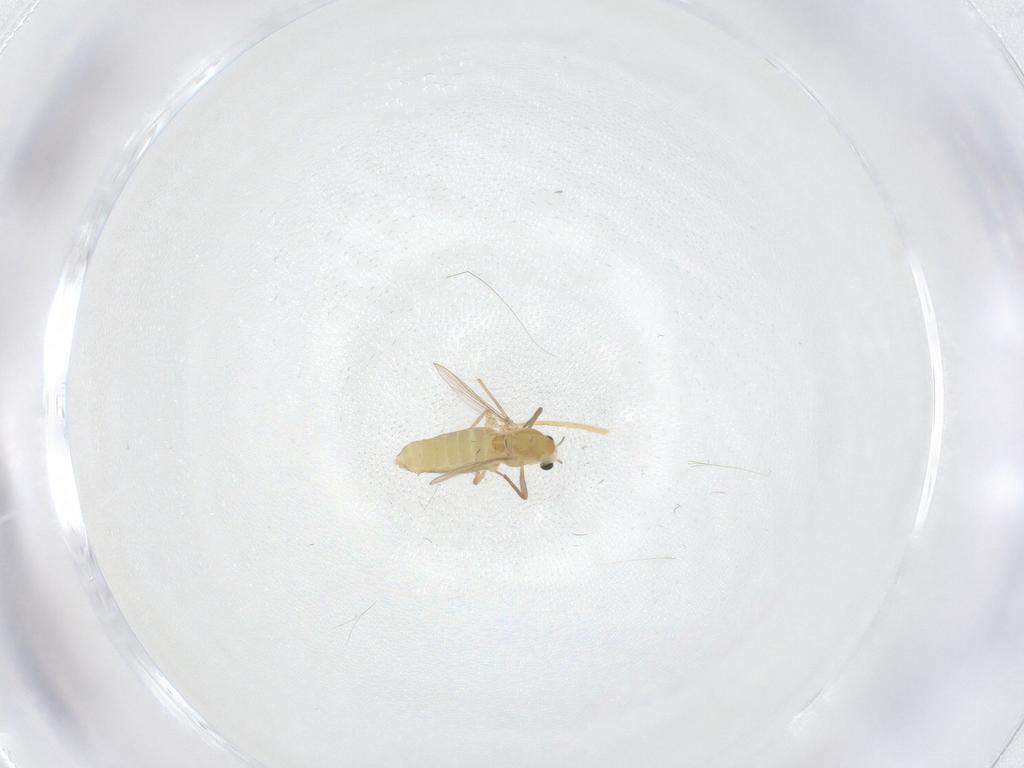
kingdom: Animalia
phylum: Arthropoda
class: Insecta
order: Diptera
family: Chironomidae
